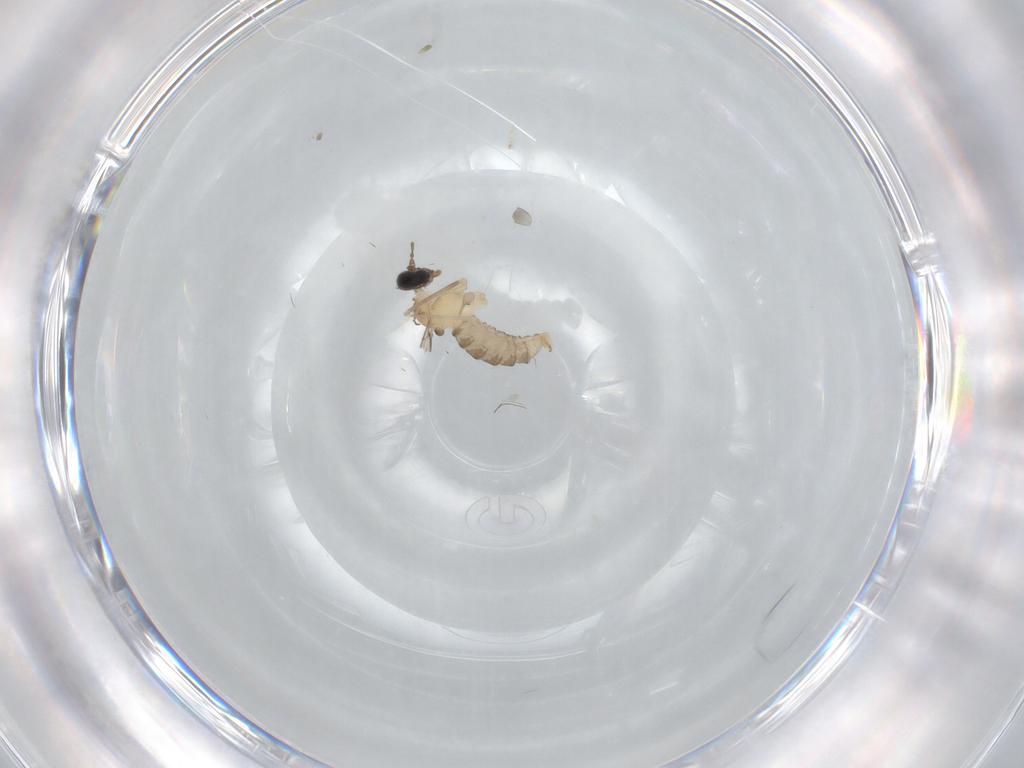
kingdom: Animalia
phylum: Arthropoda
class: Insecta
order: Diptera
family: Cecidomyiidae
